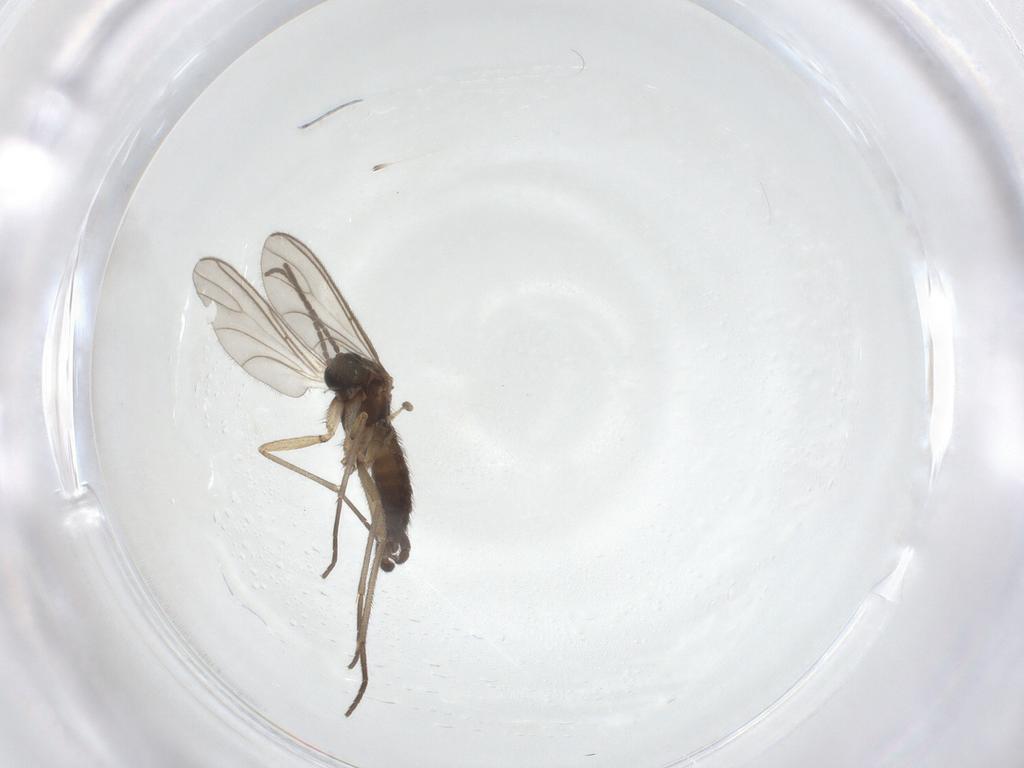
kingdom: Animalia
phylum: Arthropoda
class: Insecta
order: Diptera
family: Sciaridae
